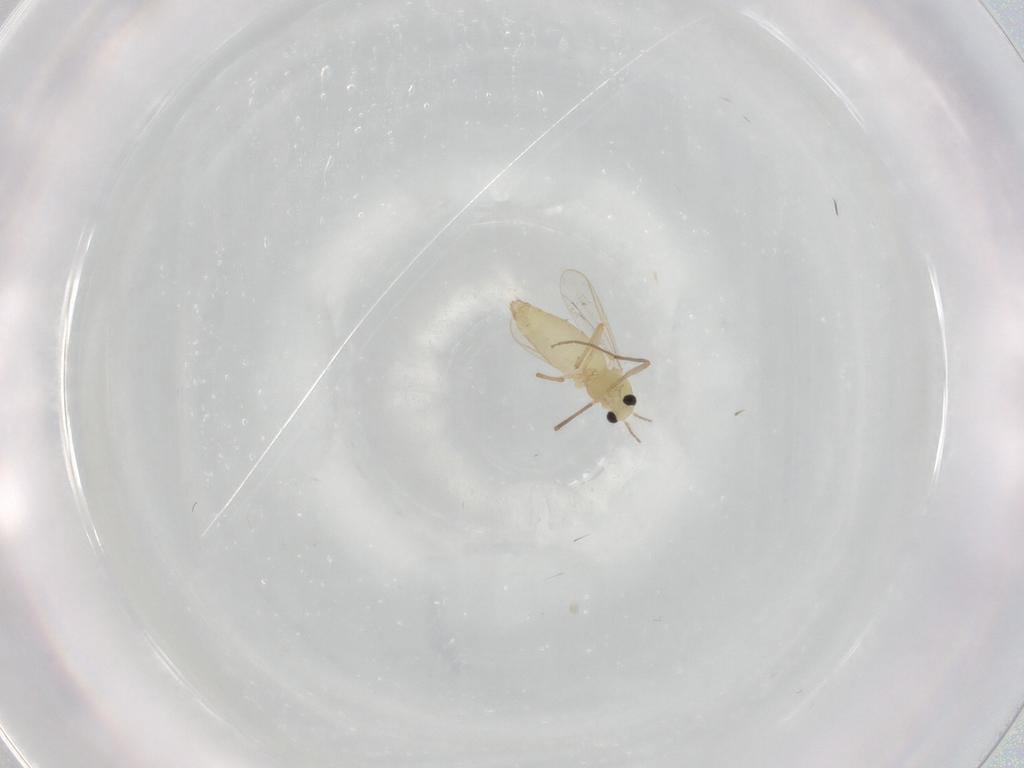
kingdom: Animalia
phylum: Arthropoda
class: Insecta
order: Diptera
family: Chironomidae
